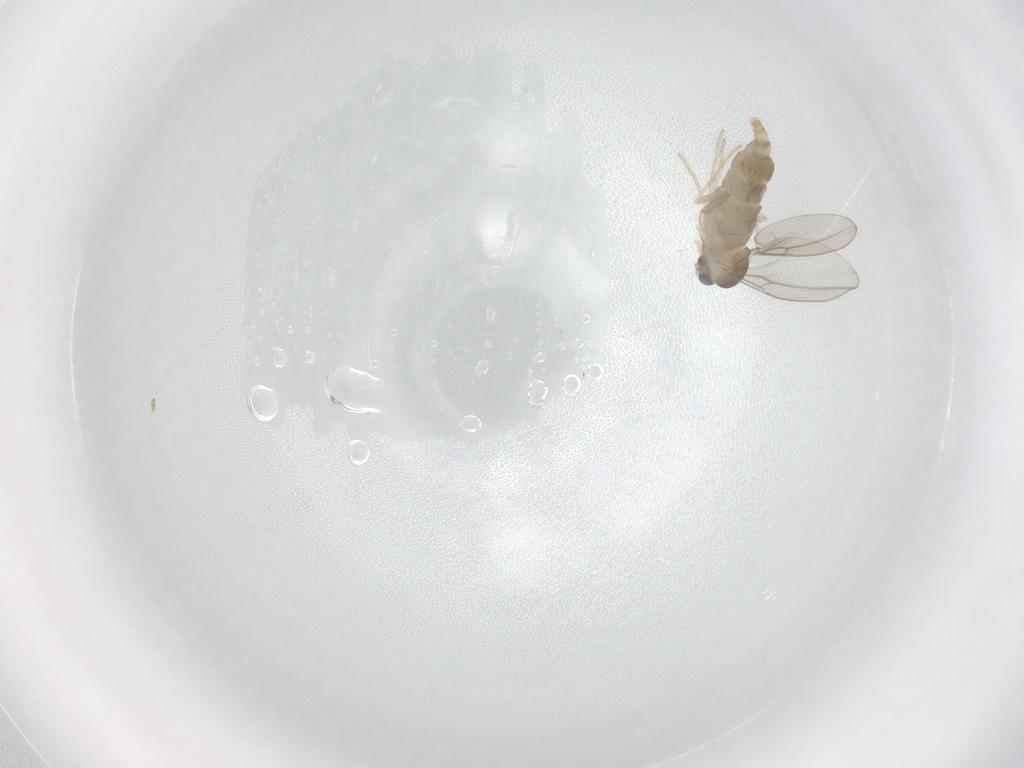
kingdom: Animalia
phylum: Arthropoda
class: Insecta
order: Diptera
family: Cecidomyiidae
